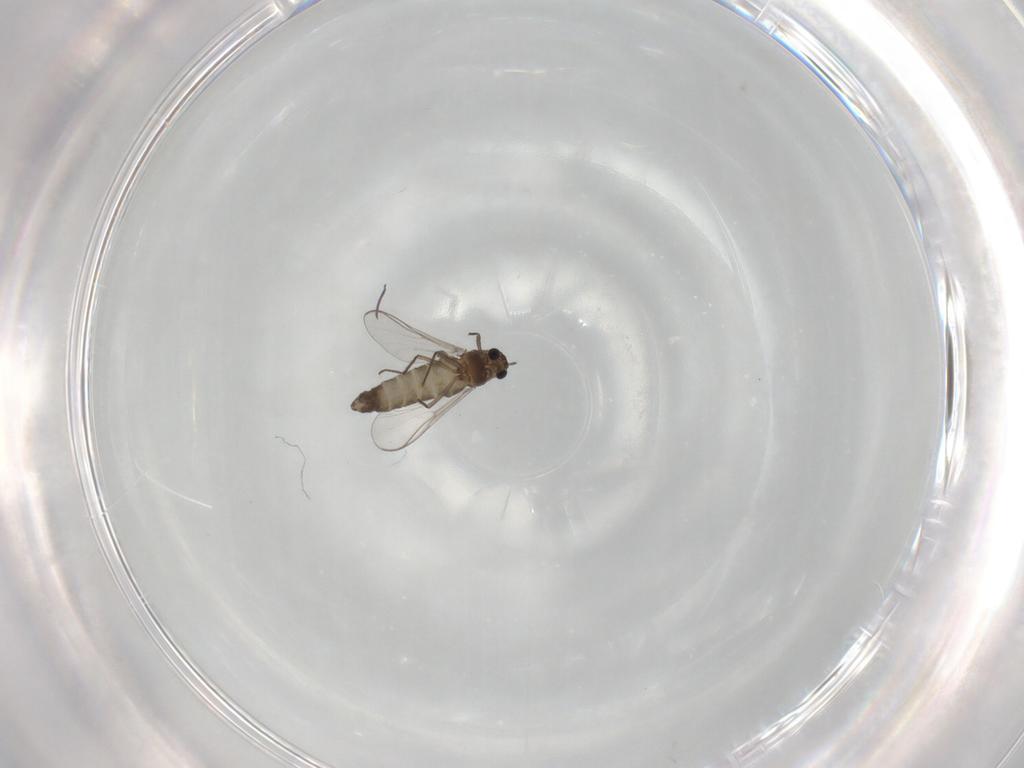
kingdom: Animalia
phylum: Arthropoda
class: Insecta
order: Diptera
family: Chironomidae
